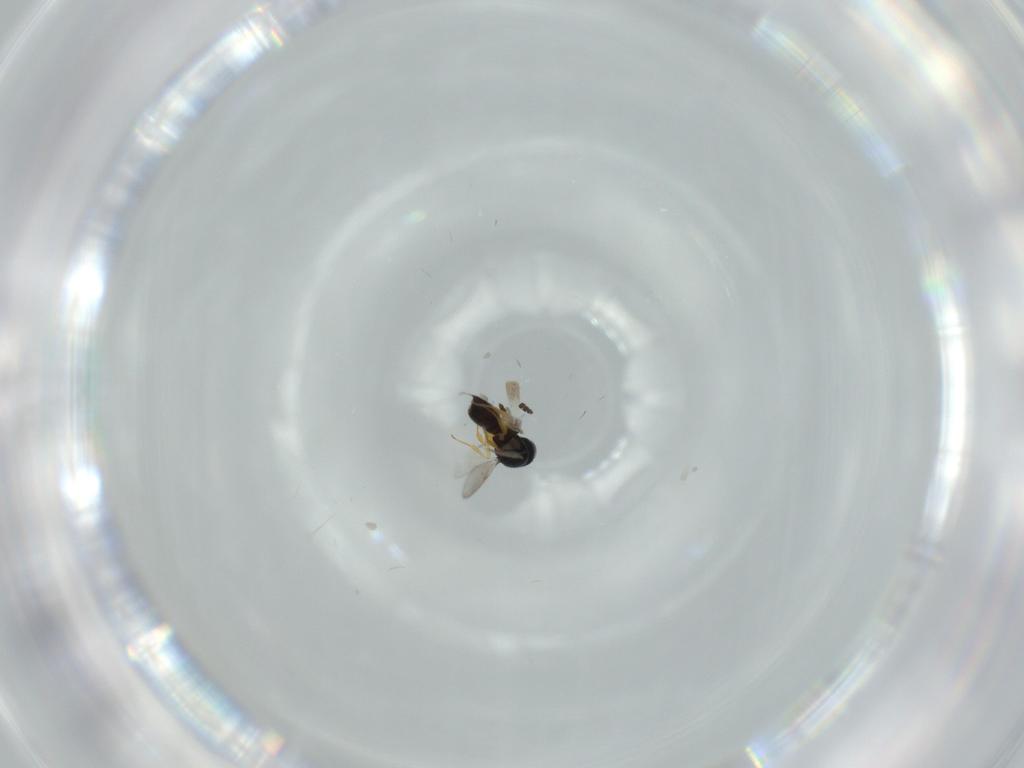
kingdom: Animalia
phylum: Arthropoda
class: Insecta
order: Hymenoptera
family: Scelionidae
